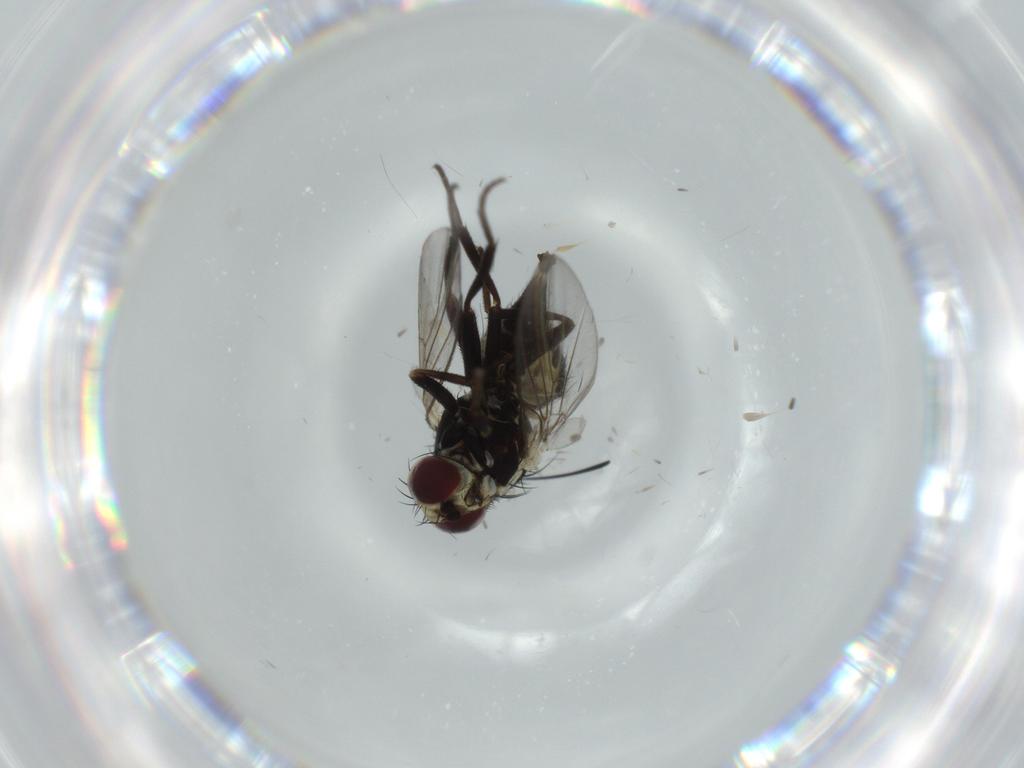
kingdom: Animalia
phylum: Arthropoda
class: Insecta
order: Diptera
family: Agromyzidae
